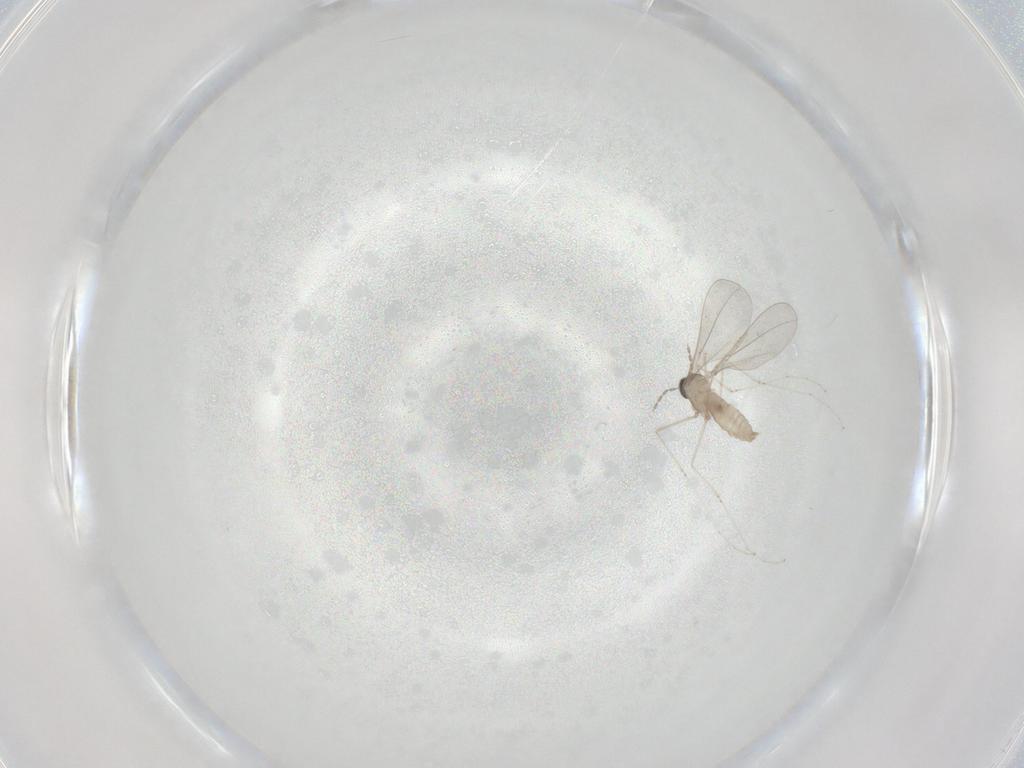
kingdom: Animalia
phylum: Arthropoda
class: Insecta
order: Diptera
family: Cecidomyiidae
